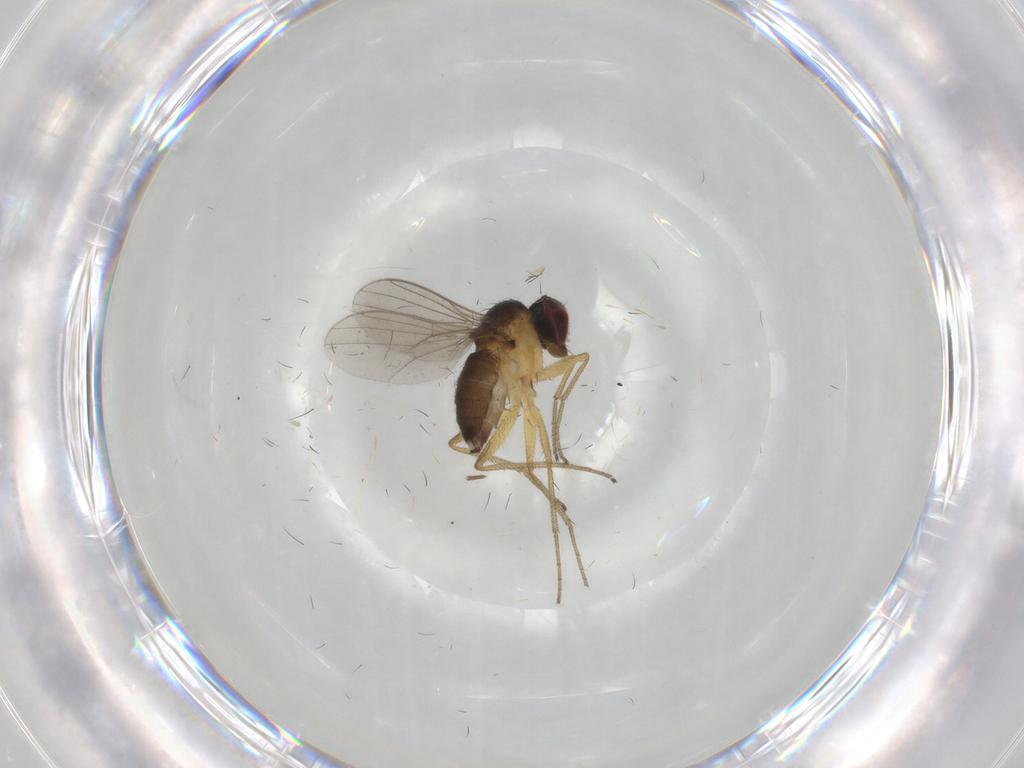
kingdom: Animalia
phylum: Arthropoda
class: Insecta
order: Diptera
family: Dolichopodidae
